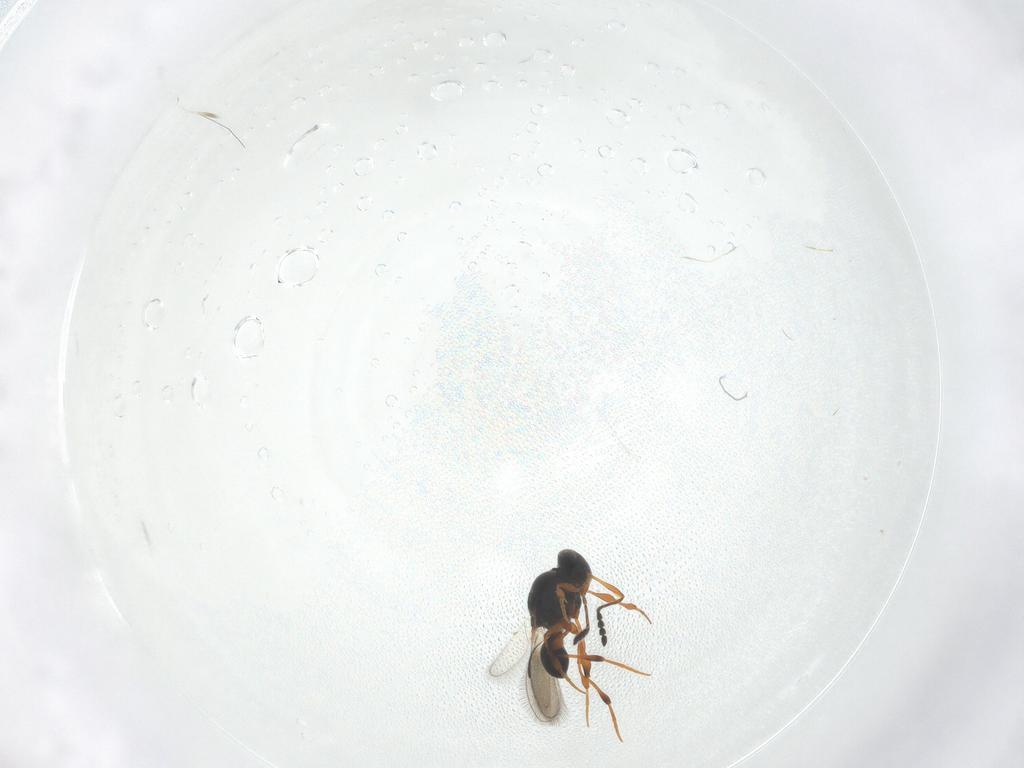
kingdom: Animalia
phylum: Arthropoda
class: Insecta
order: Hymenoptera
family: Platygastridae
